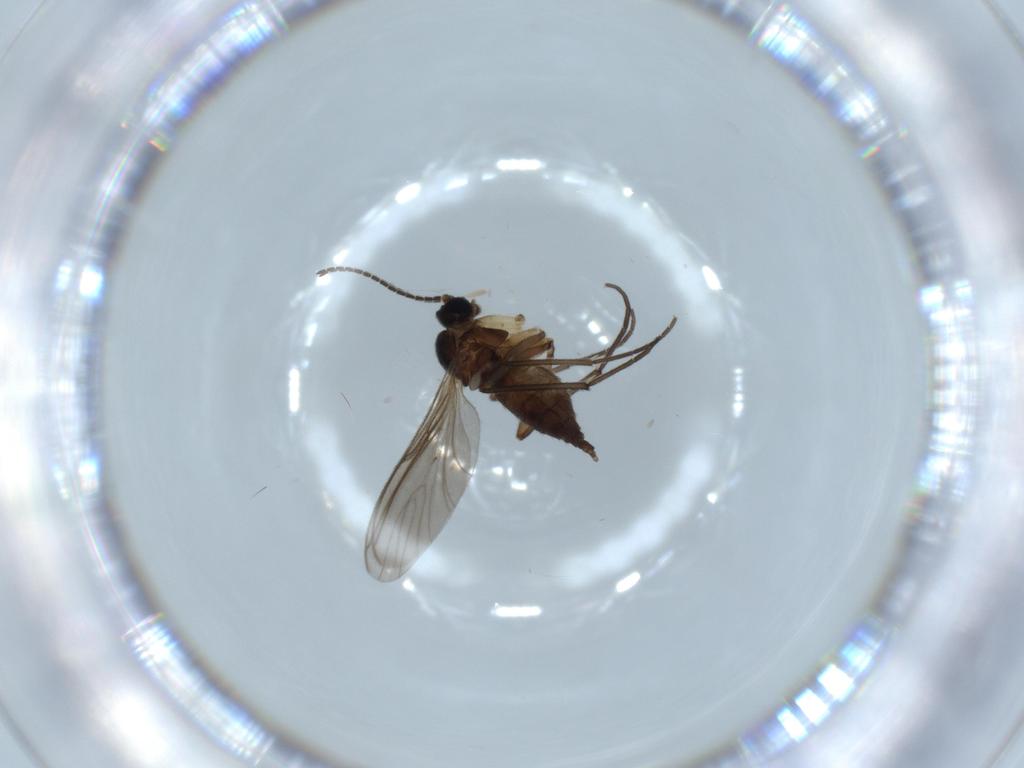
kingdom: Animalia
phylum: Arthropoda
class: Insecta
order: Diptera
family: Sciaridae
